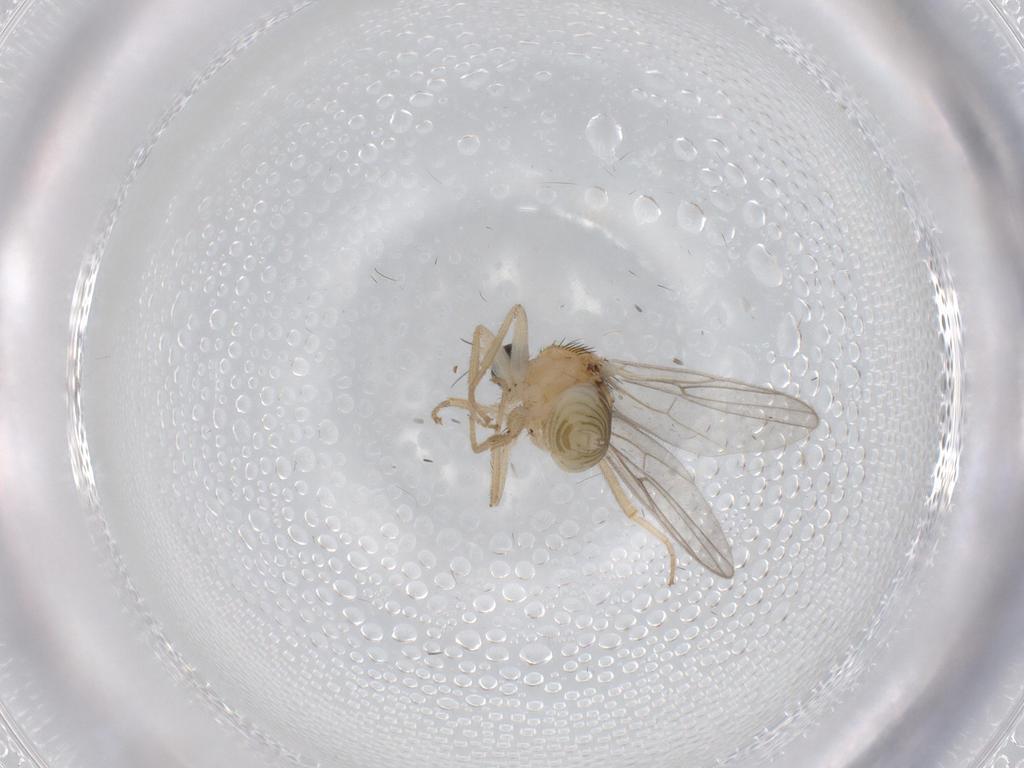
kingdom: Animalia
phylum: Arthropoda
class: Insecta
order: Diptera
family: Hybotidae
